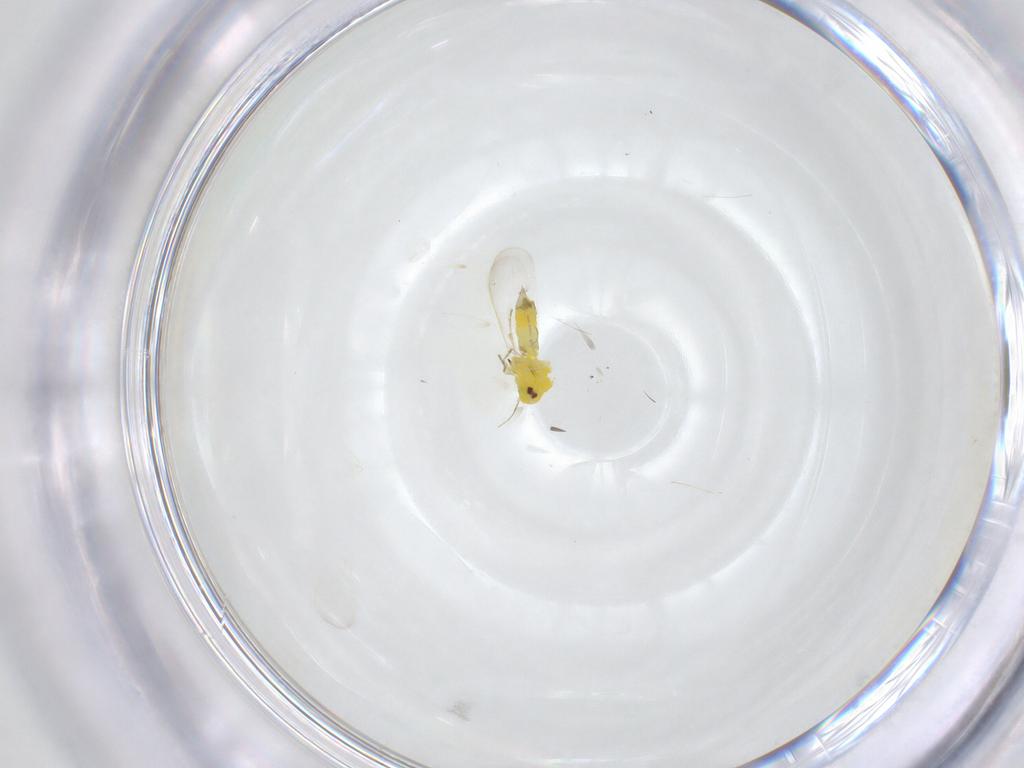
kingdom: Animalia
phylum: Arthropoda
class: Insecta
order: Hemiptera
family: Aleyrodidae
